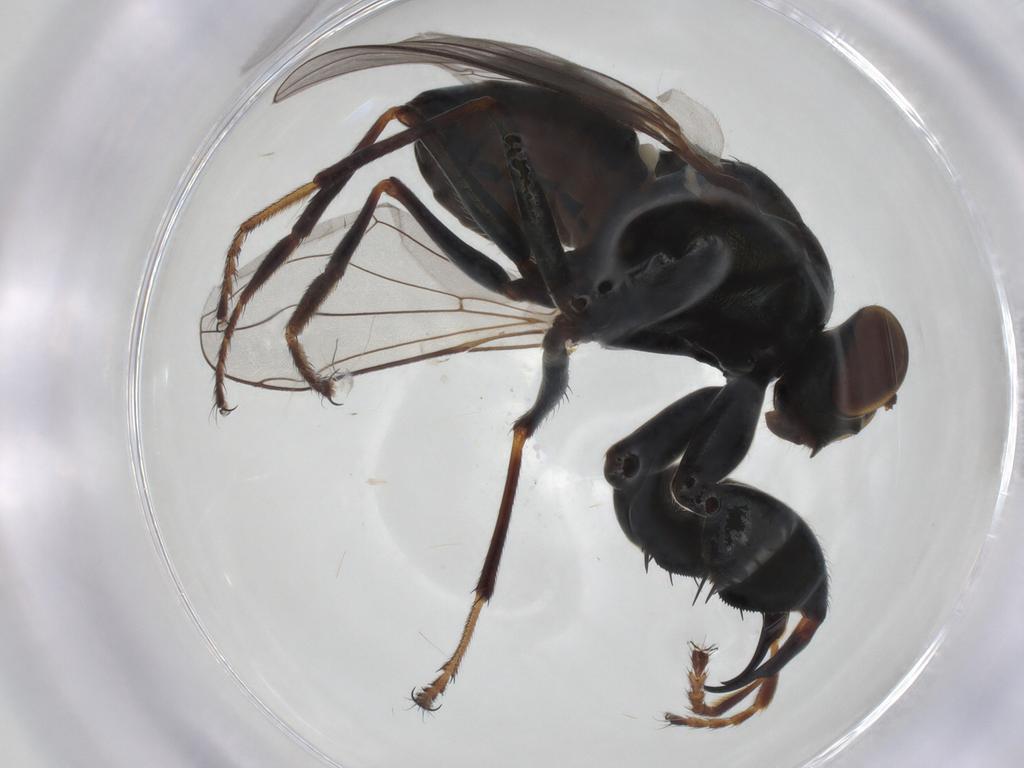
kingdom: Animalia
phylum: Arthropoda
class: Insecta
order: Diptera
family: Ephydridae
